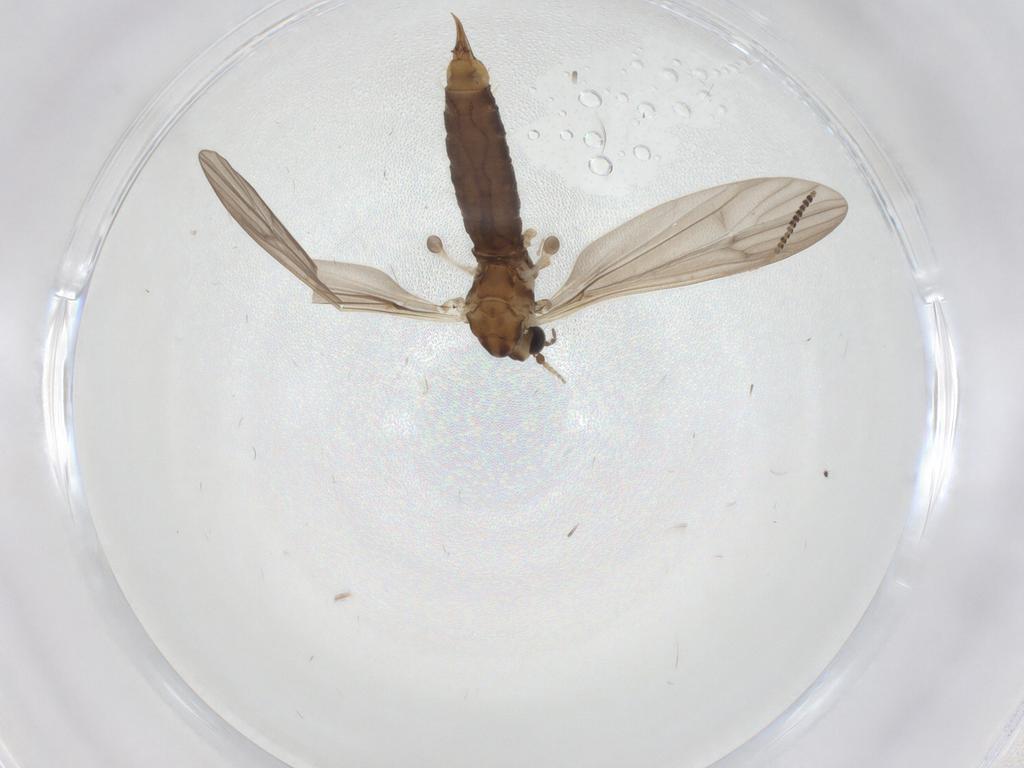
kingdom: Animalia
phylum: Arthropoda
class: Insecta
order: Diptera
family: Limoniidae
